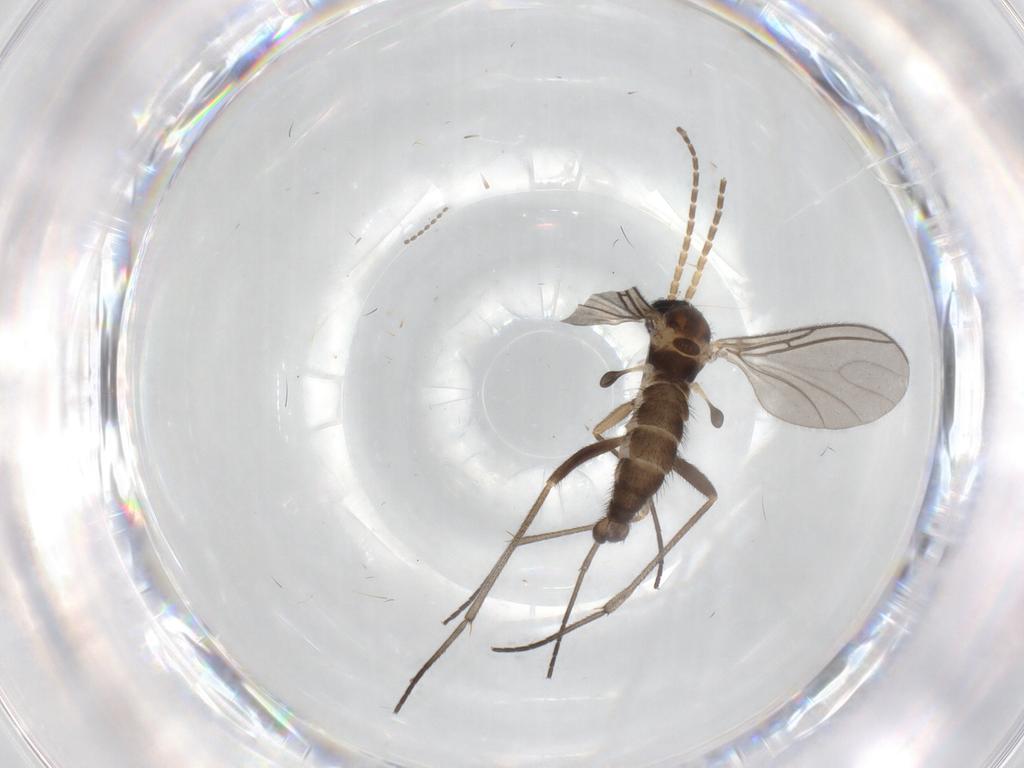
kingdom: Animalia
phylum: Arthropoda
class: Insecta
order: Diptera
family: Sciaridae
